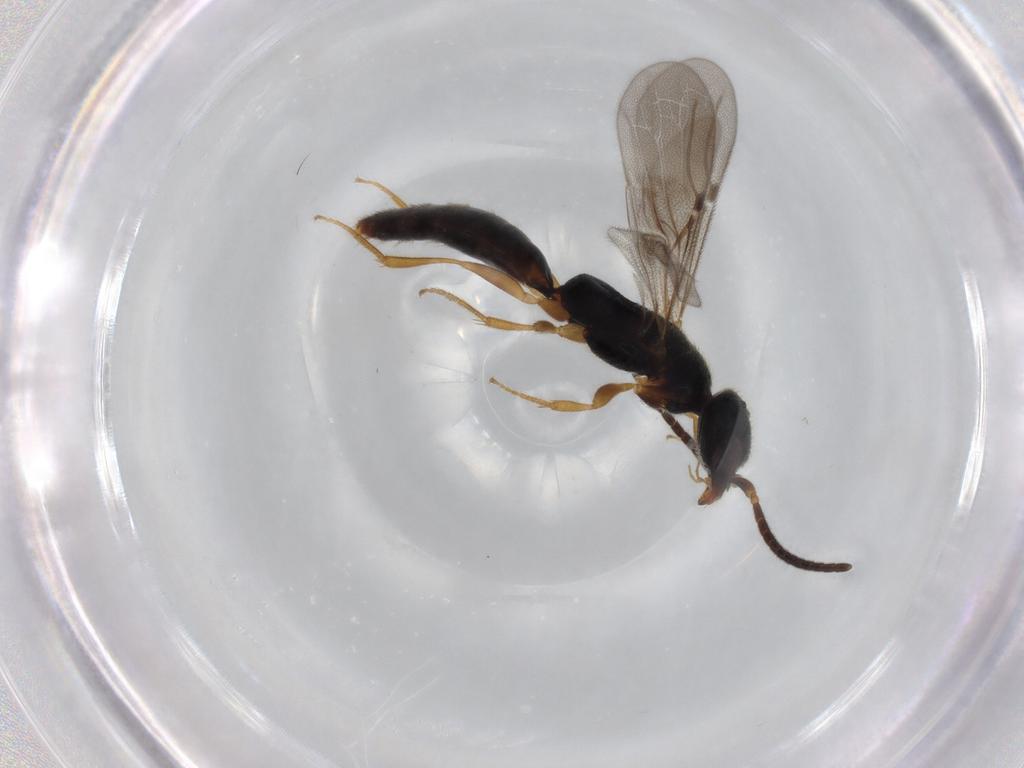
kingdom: Animalia
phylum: Arthropoda
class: Insecta
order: Hymenoptera
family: Bethylidae
